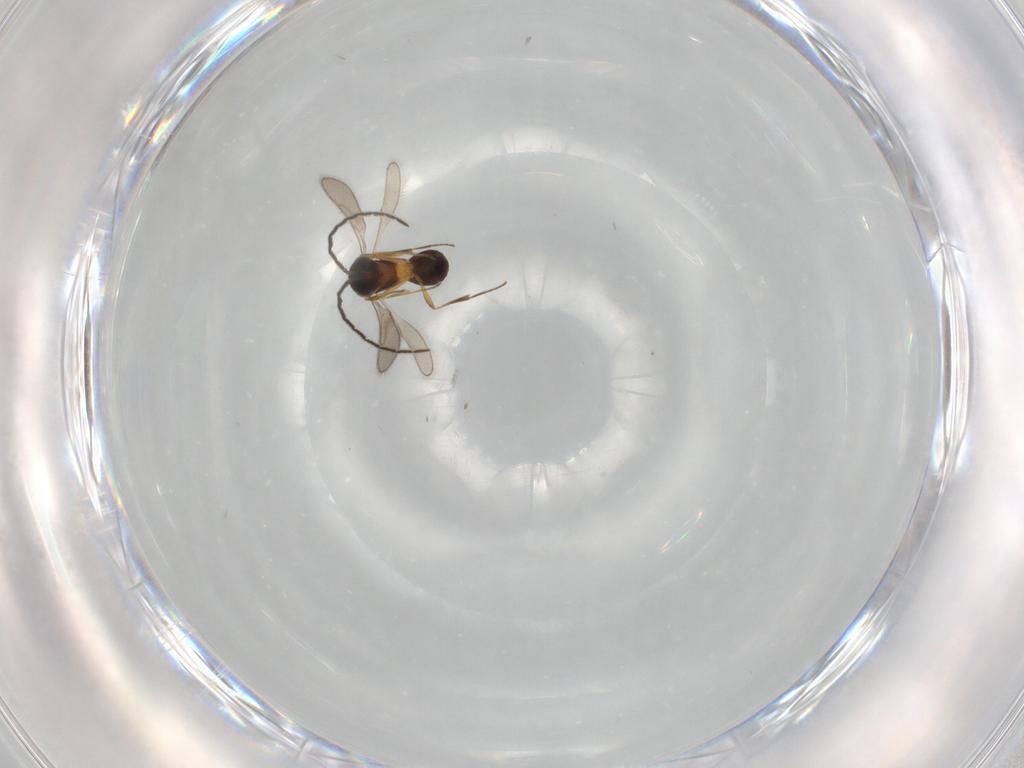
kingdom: Animalia
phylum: Arthropoda
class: Insecta
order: Hymenoptera
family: Scelionidae
